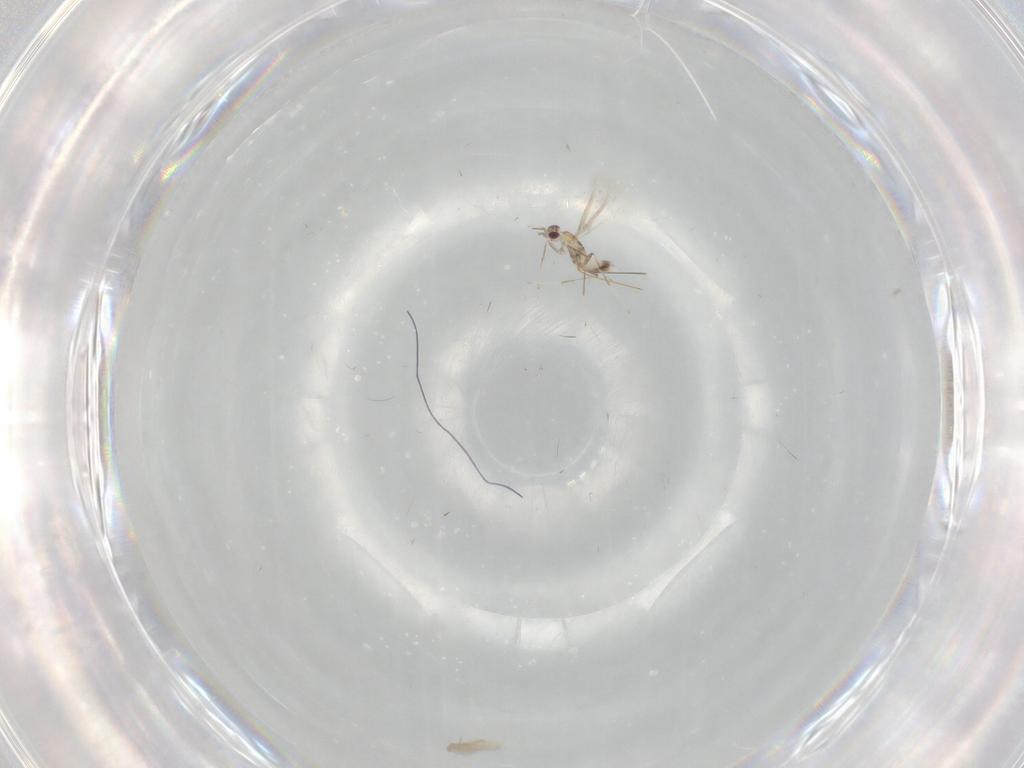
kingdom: Animalia
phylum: Arthropoda
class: Insecta
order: Hymenoptera
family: Mymaridae
